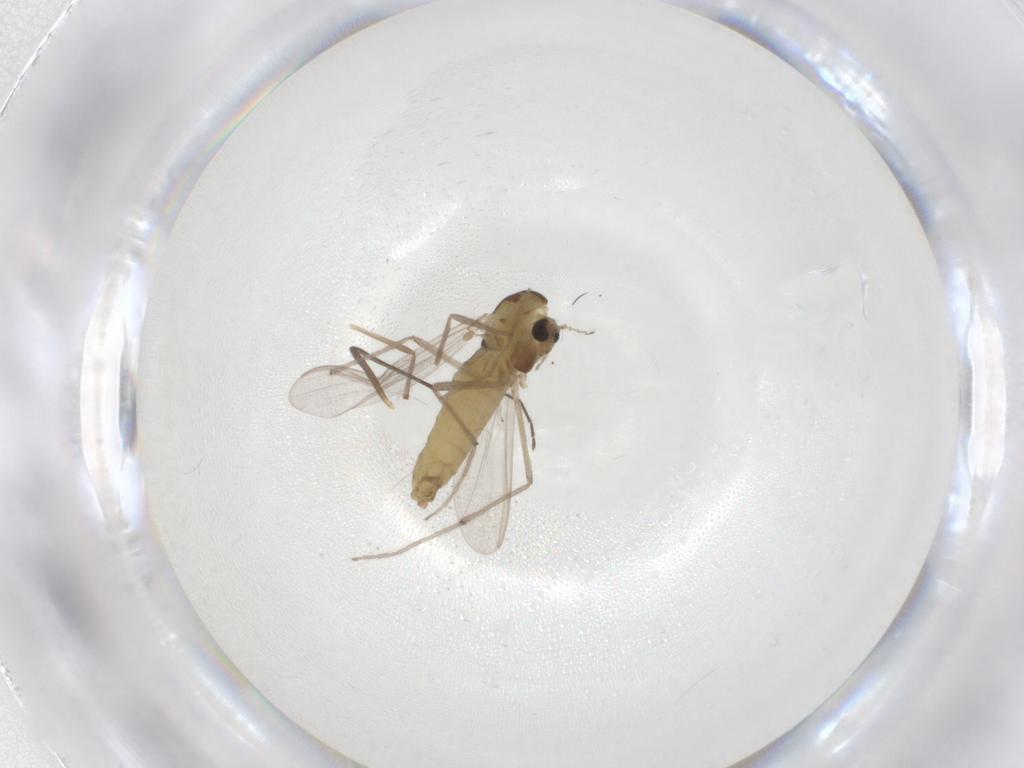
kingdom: Animalia
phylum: Arthropoda
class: Insecta
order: Diptera
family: Chironomidae
